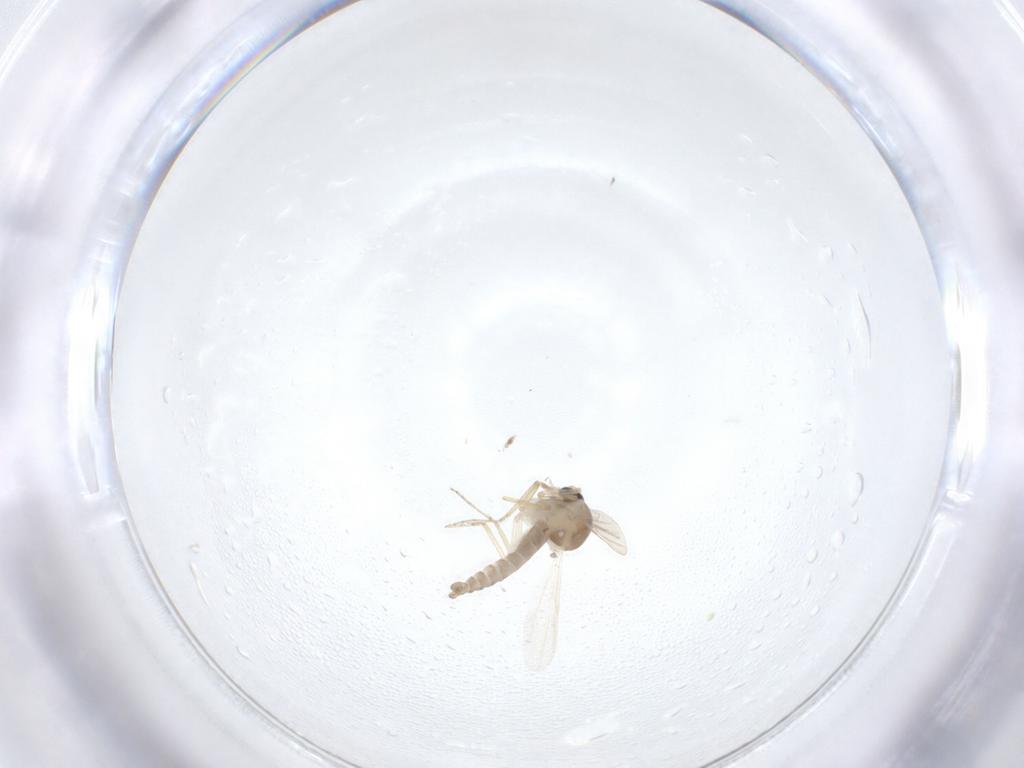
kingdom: Animalia
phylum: Arthropoda
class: Insecta
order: Diptera
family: Ceratopogonidae
